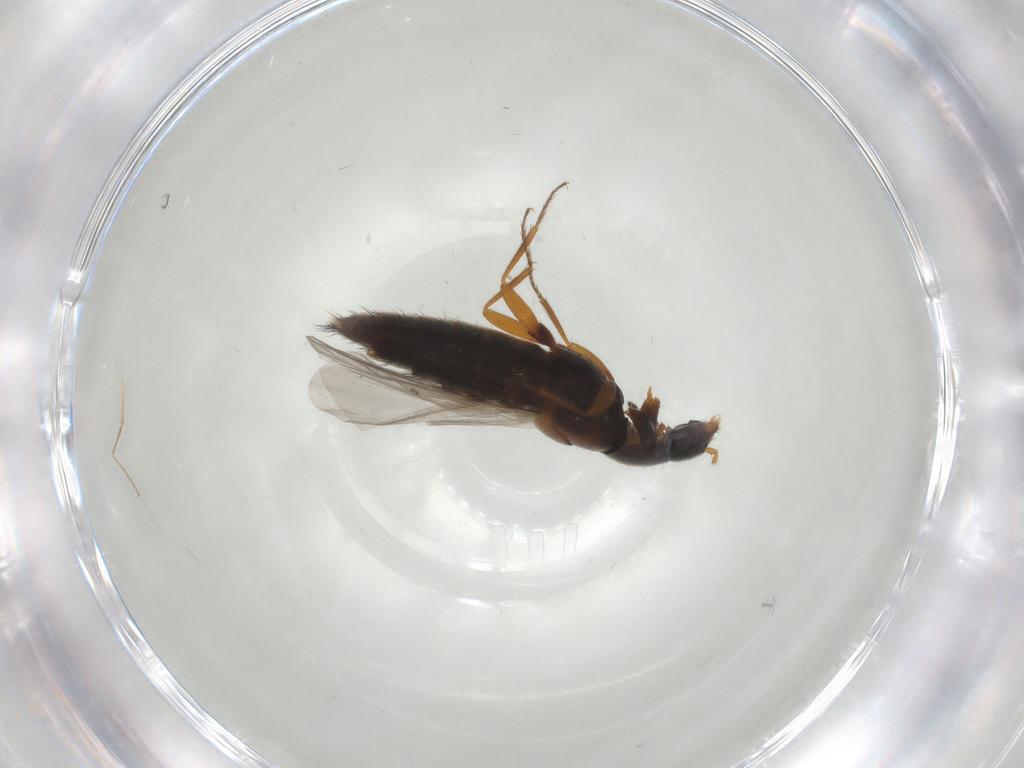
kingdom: Animalia
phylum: Arthropoda
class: Insecta
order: Coleoptera
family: Staphylinidae
